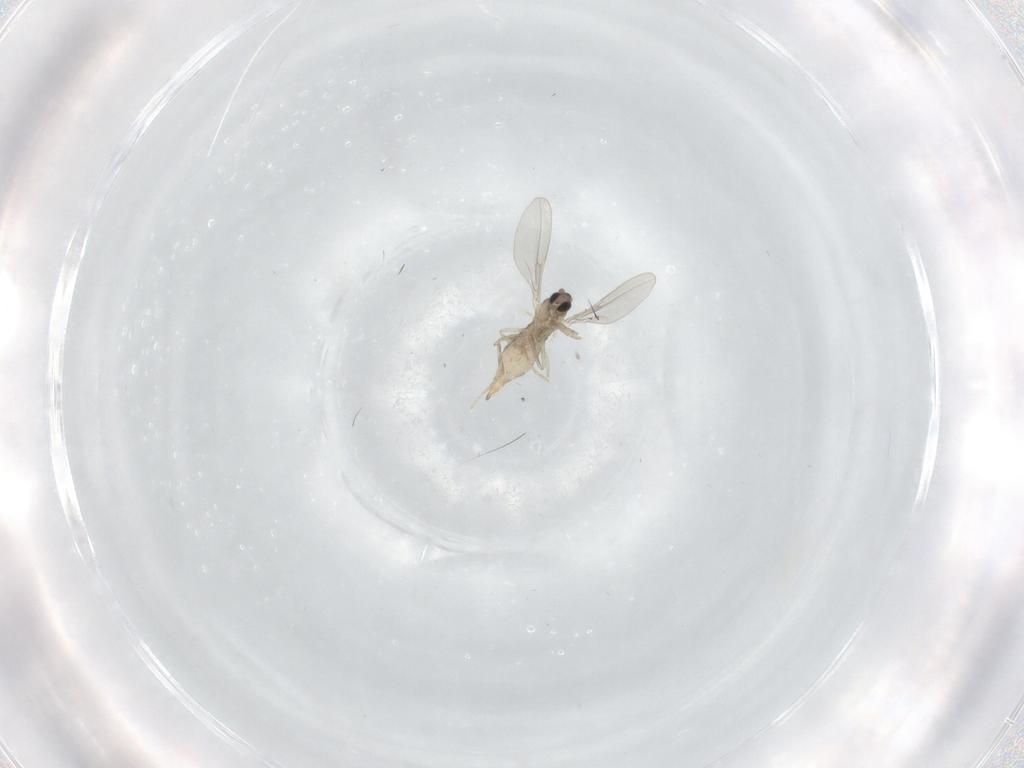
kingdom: Animalia
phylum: Arthropoda
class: Insecta
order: Diptera
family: Cecidomyiidae
